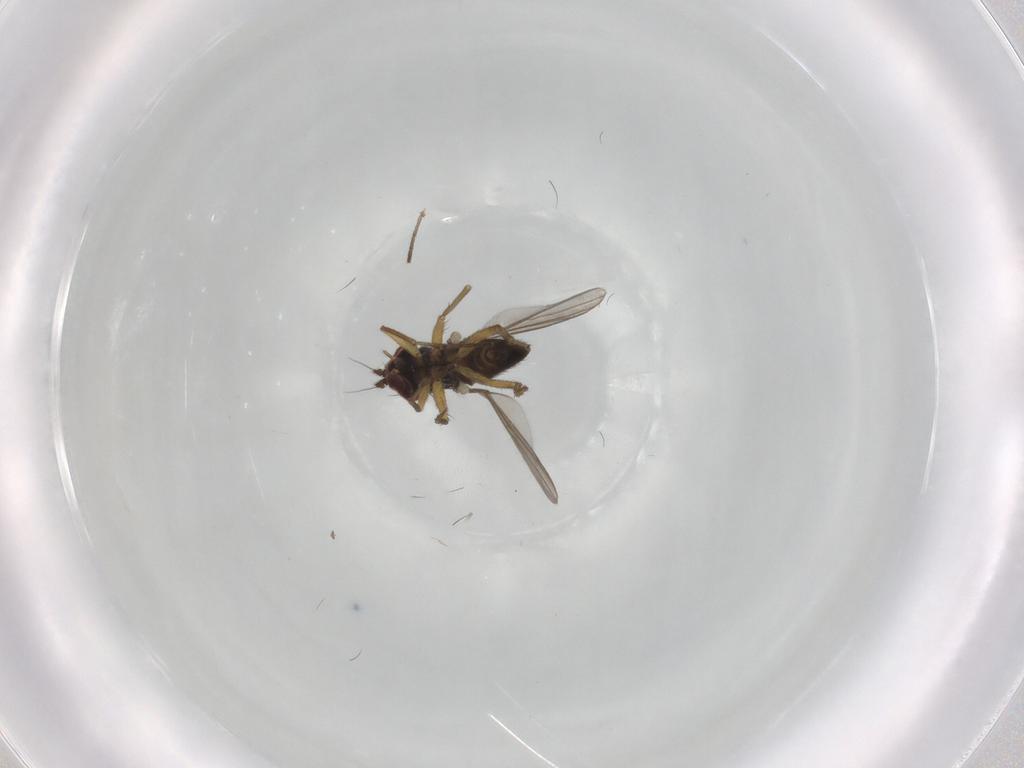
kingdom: Animalia
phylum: Arthropoda
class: Insecta
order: Diptera
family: Dolichopodidae
